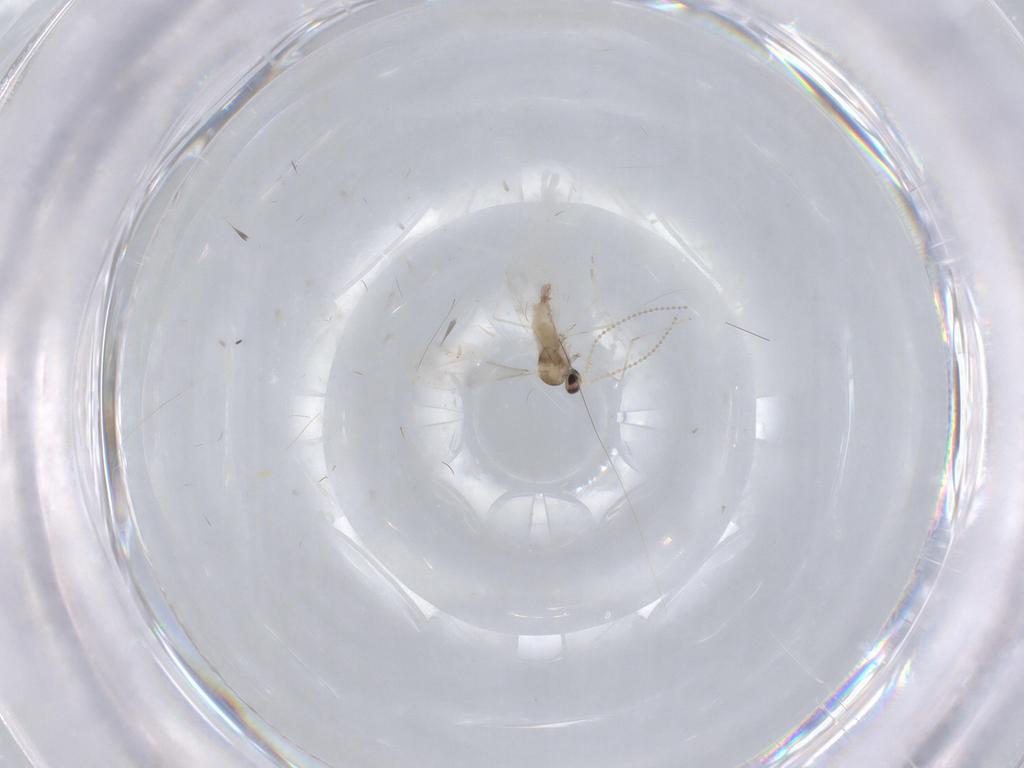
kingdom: Animalia
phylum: Arthropoda
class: Insecta
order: Diptera
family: Cecidomyiidae
